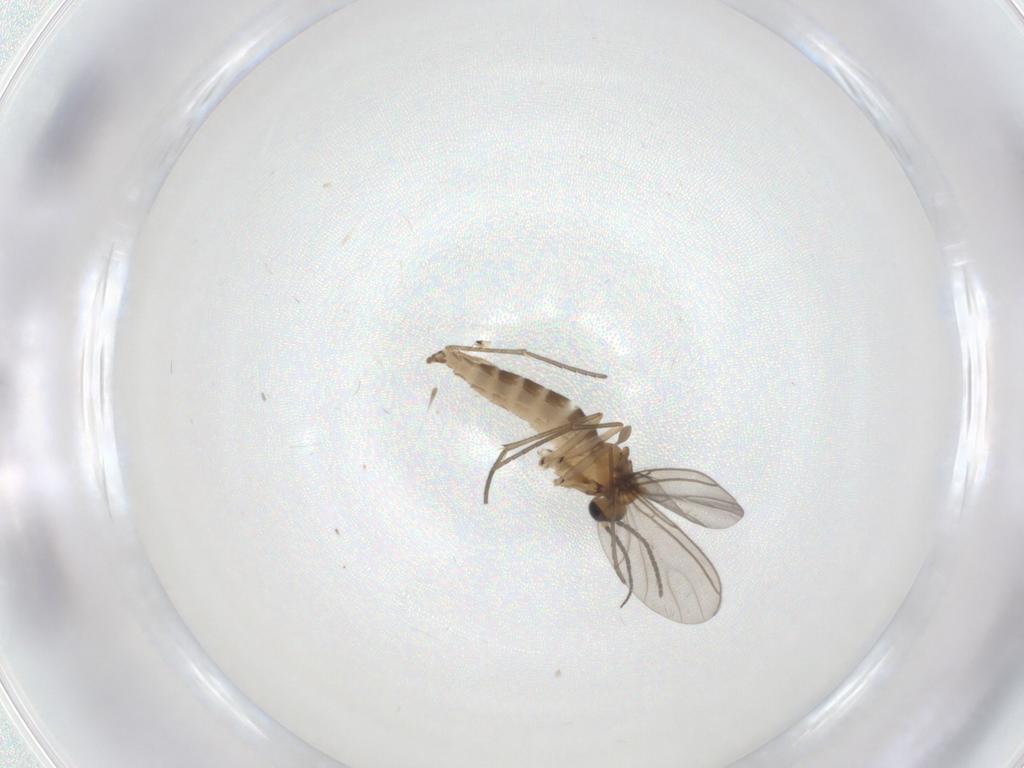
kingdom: Animalia
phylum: Arthropoda
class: Insecta
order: Diptera
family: Sciaridae
